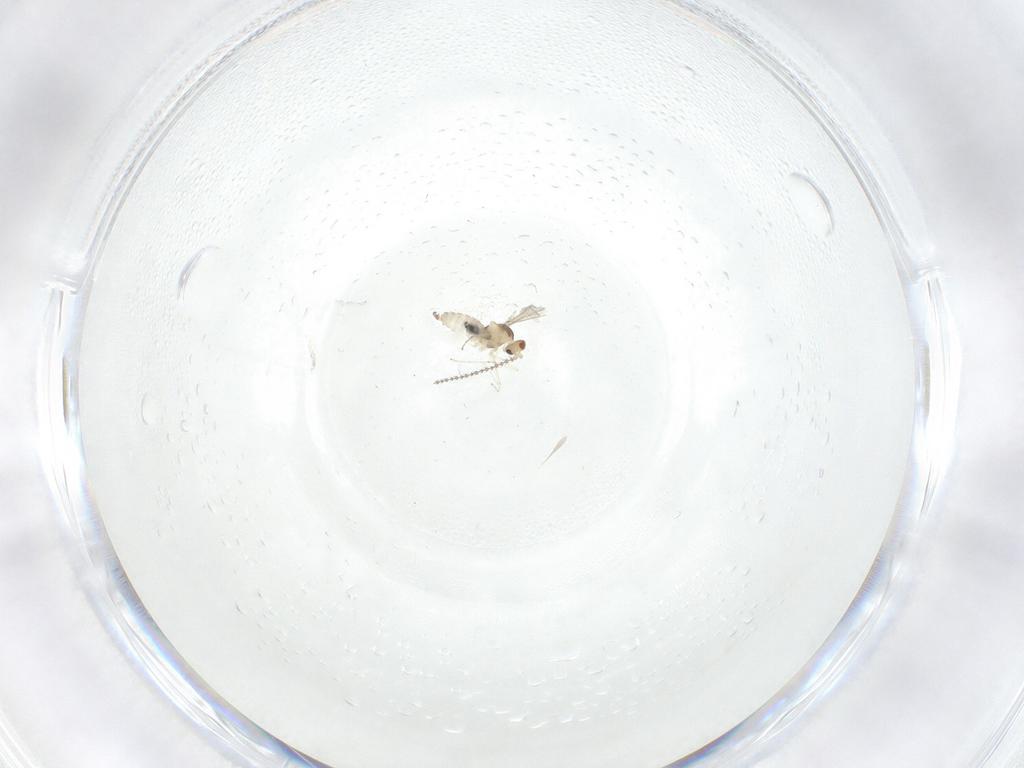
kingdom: Animalia
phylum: Arthropoda
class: Insecta
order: Diptera
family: Cecidomyiidae
